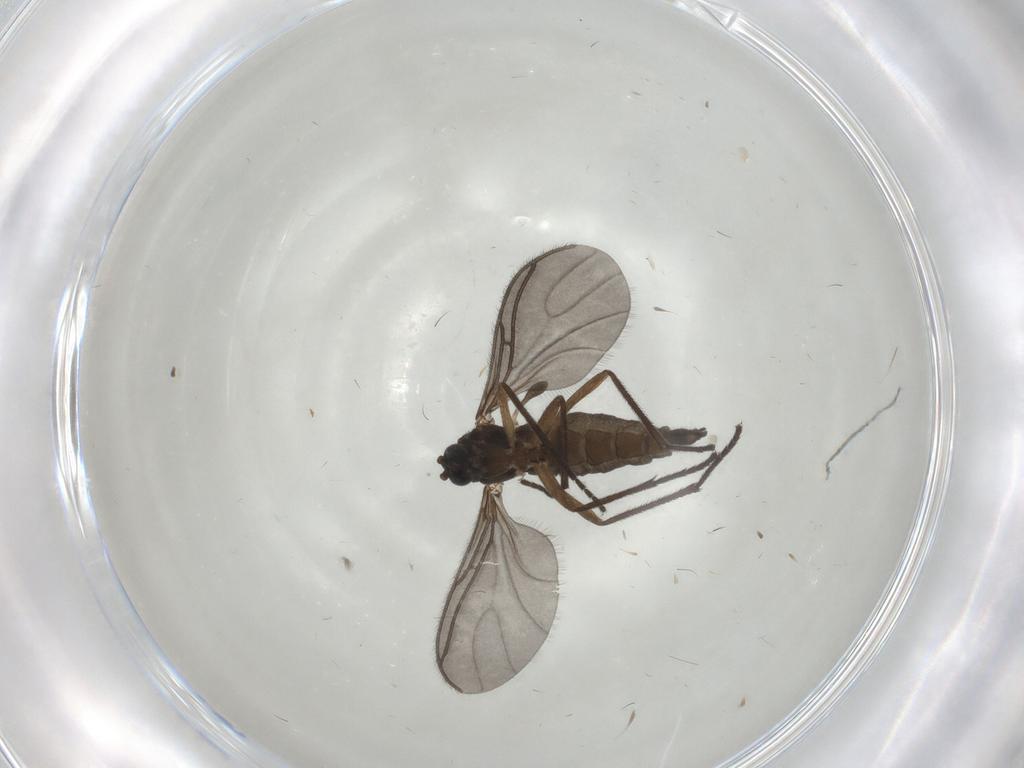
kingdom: Animalia
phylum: Arthropoda
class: Insecta
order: Diptera
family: Sciaridae
